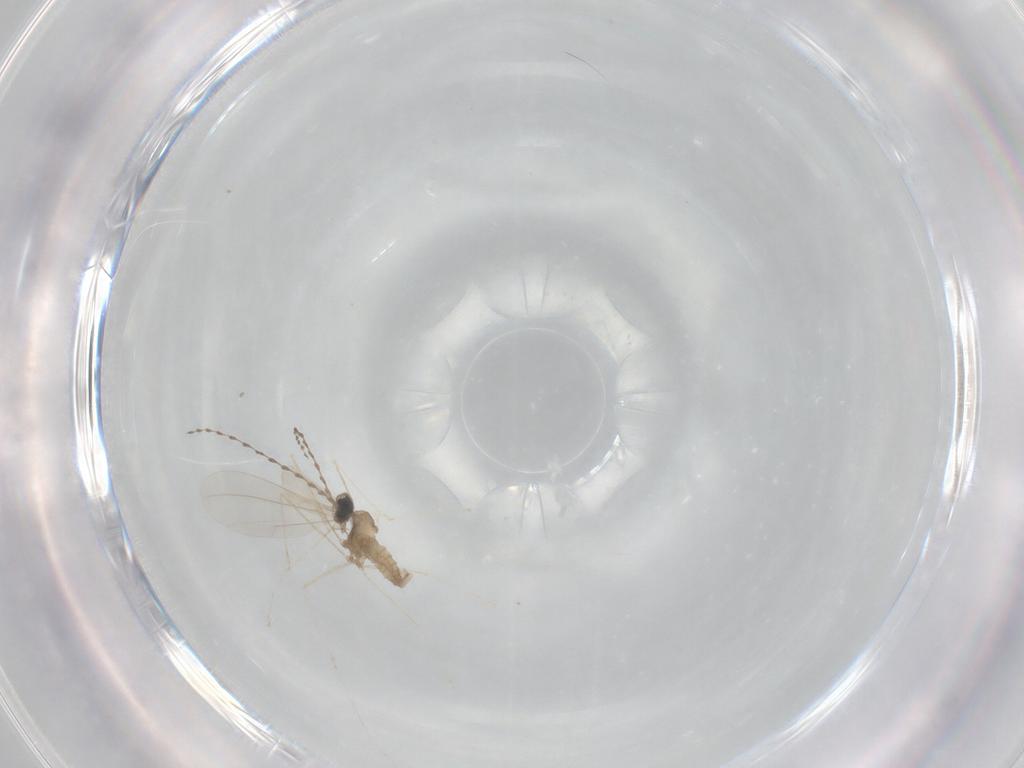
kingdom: Animalia
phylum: Arthropoda
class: Insecta
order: Diptera
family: Cecidomyiidae
